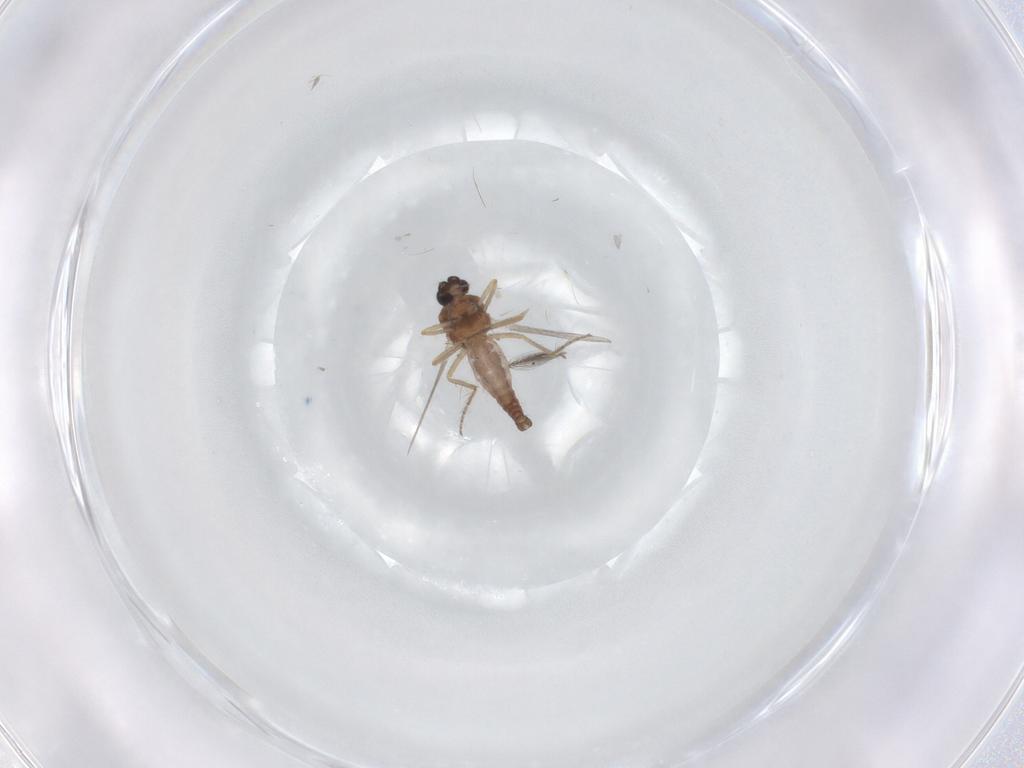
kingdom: Animalia
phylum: Arthropoda
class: Insecta
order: Diptera
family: Ceratopogonidae
